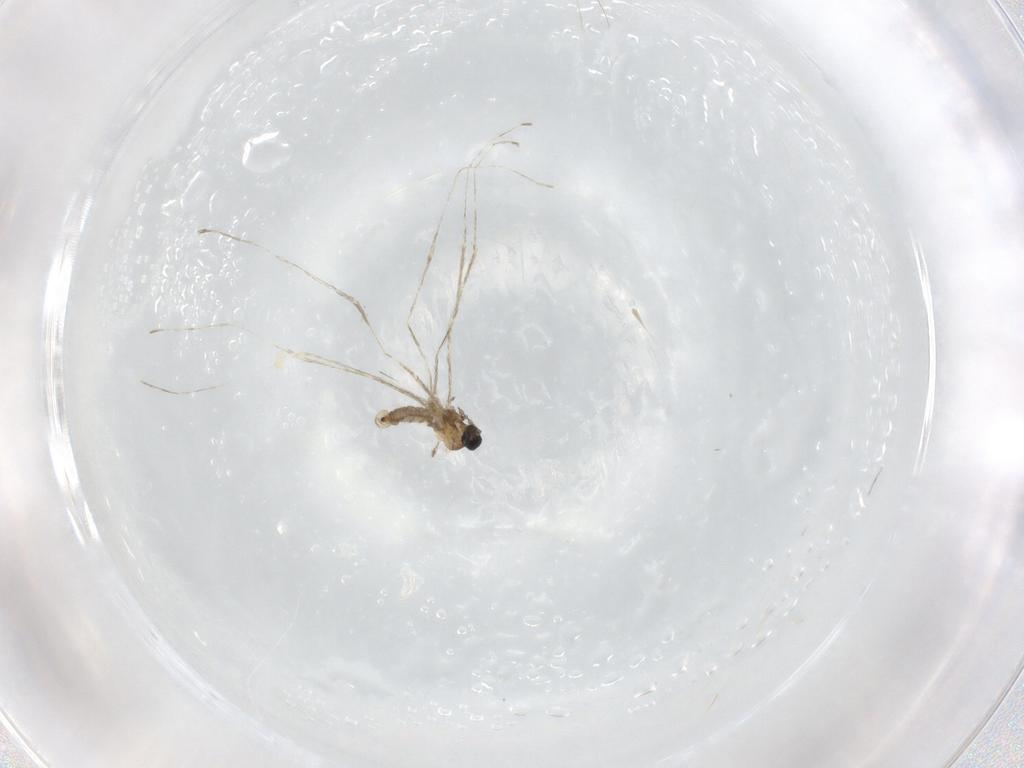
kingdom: Animalia
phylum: Arthropoda
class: Insecta
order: Diptera
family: Cecidomyiidae
